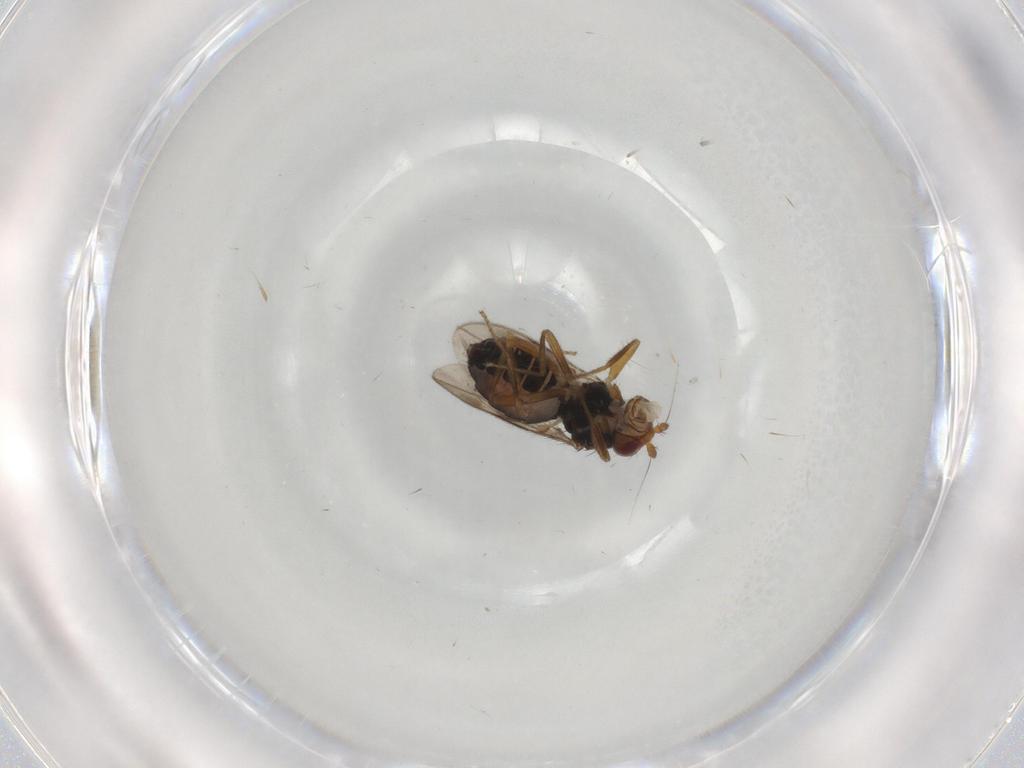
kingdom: Animalia
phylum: Arthropoda
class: Insecta
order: Diptera
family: Sphaeroceridae
